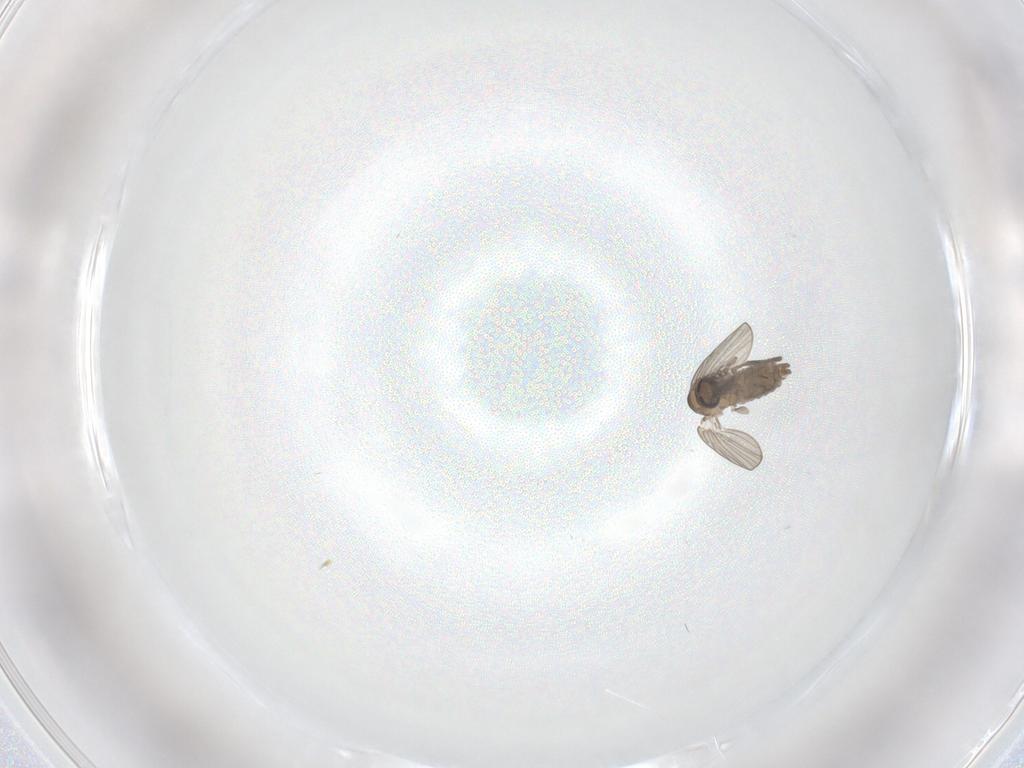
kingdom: Animalia
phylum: Arthropoda
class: Insecta
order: Diptera
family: Psychodidae
